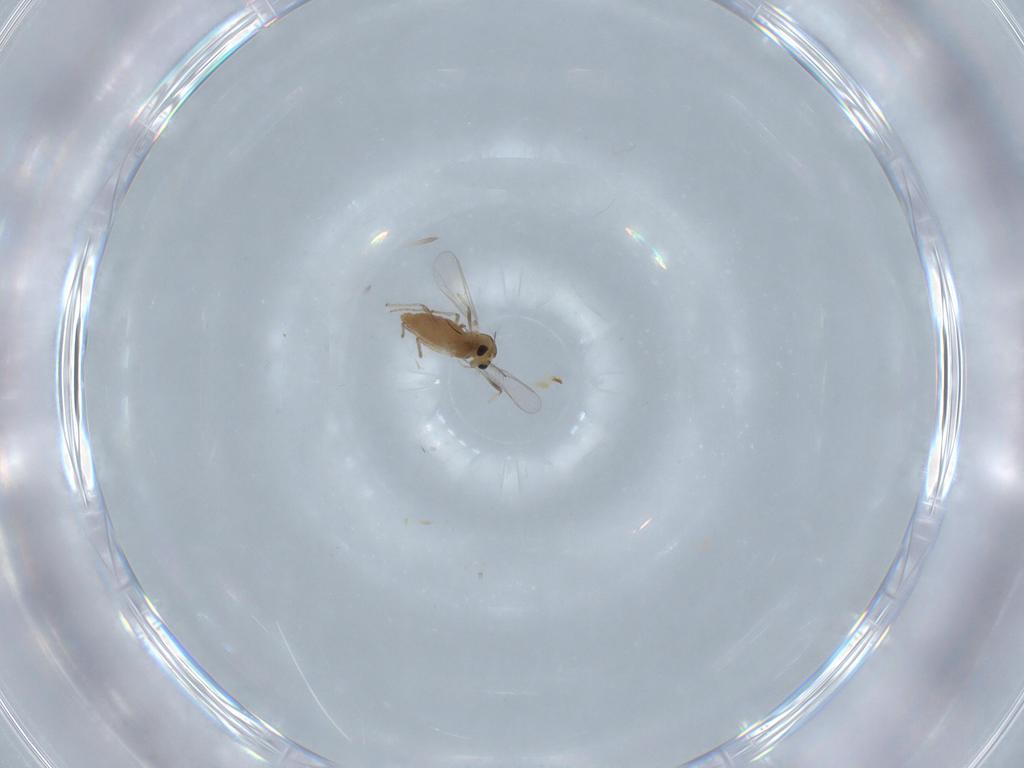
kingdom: Animalia
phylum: Arthropoda
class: Insecta
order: Diptera
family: Chironomidae
